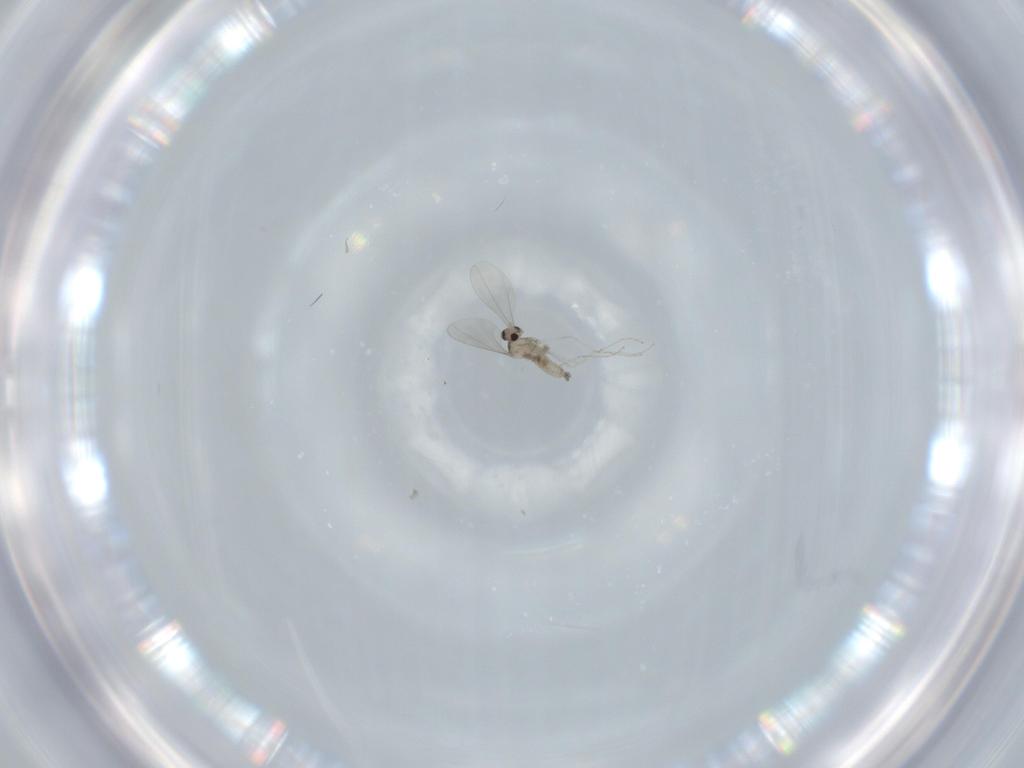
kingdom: Animalia
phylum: Arthropoda
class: Insecta
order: Diptera
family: Cecidomyiidae
